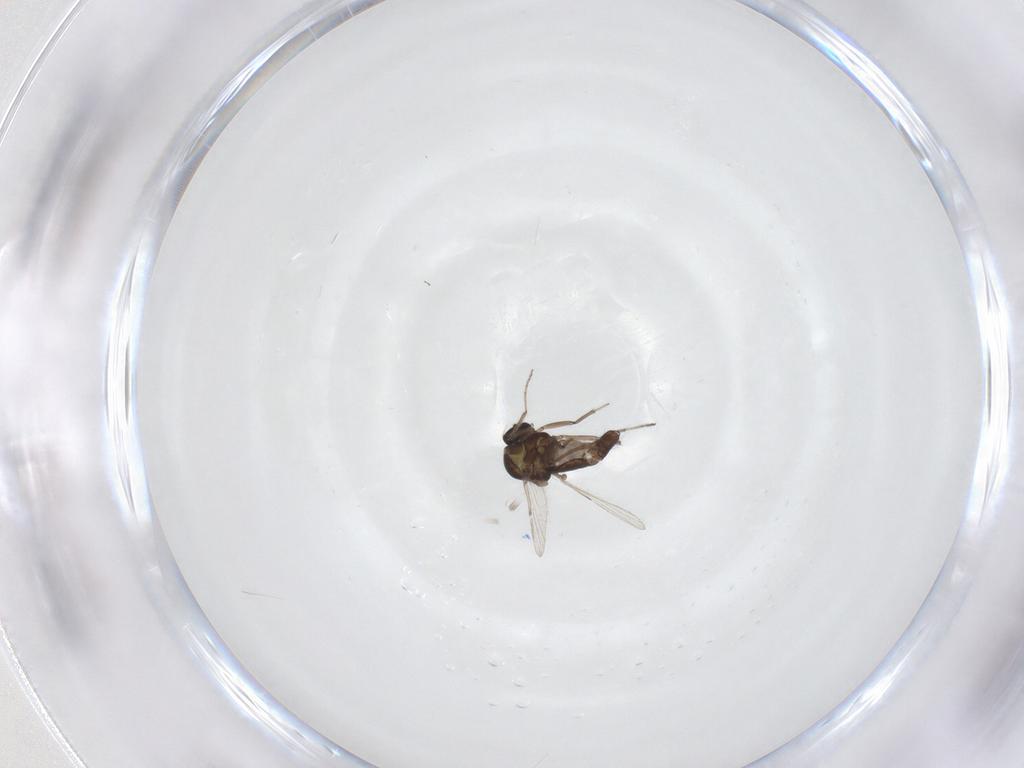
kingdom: Animalia
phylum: Arthropoda
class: Insecta
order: Diptera
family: Ceratopogonidae
